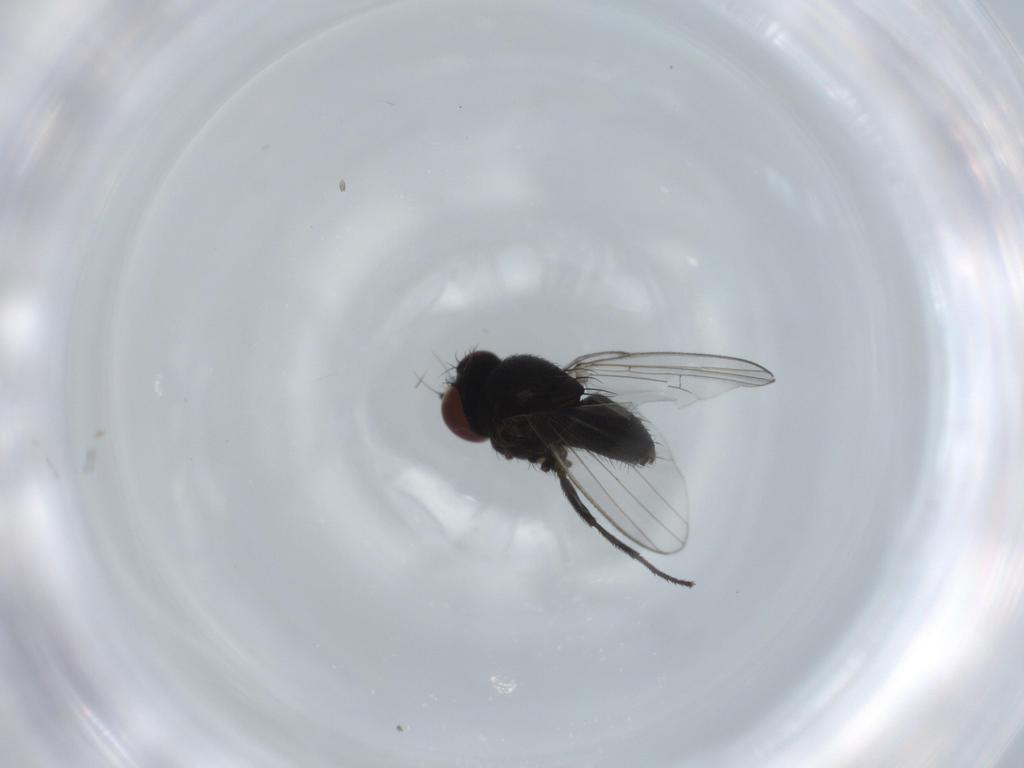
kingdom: Animalia
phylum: Arthropoda
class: Insecta
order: Diptera
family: Milichiidae
